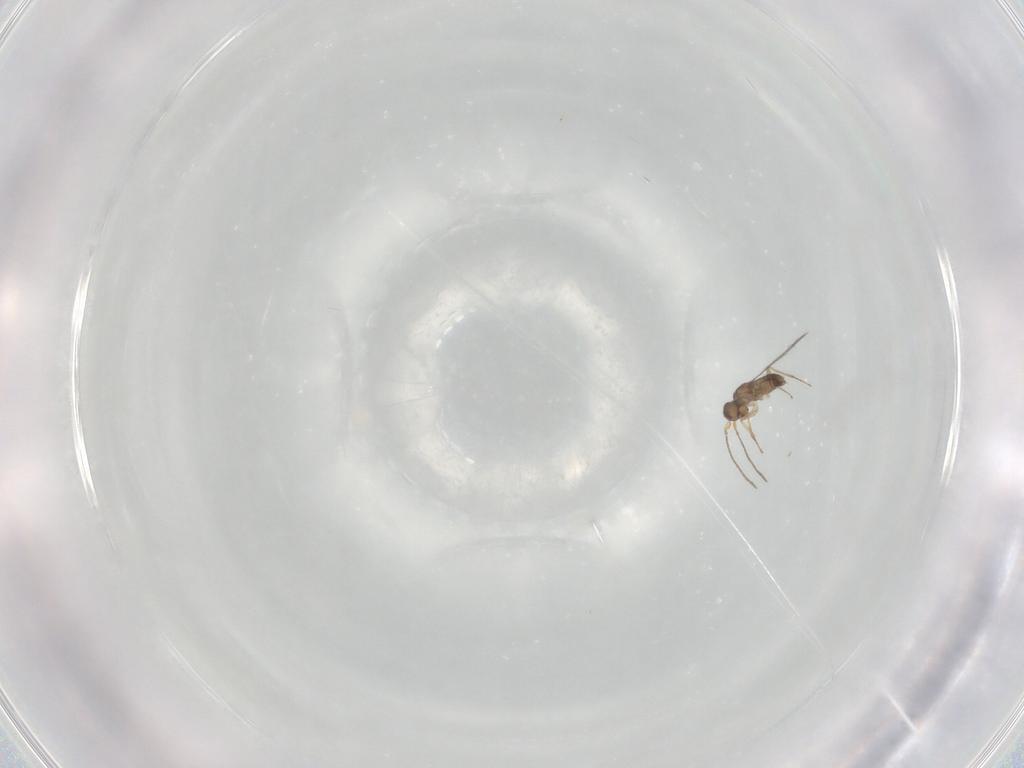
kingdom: Animalia
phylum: Arthropoda
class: Insecta
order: Hymenoptera
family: Mymaridae
